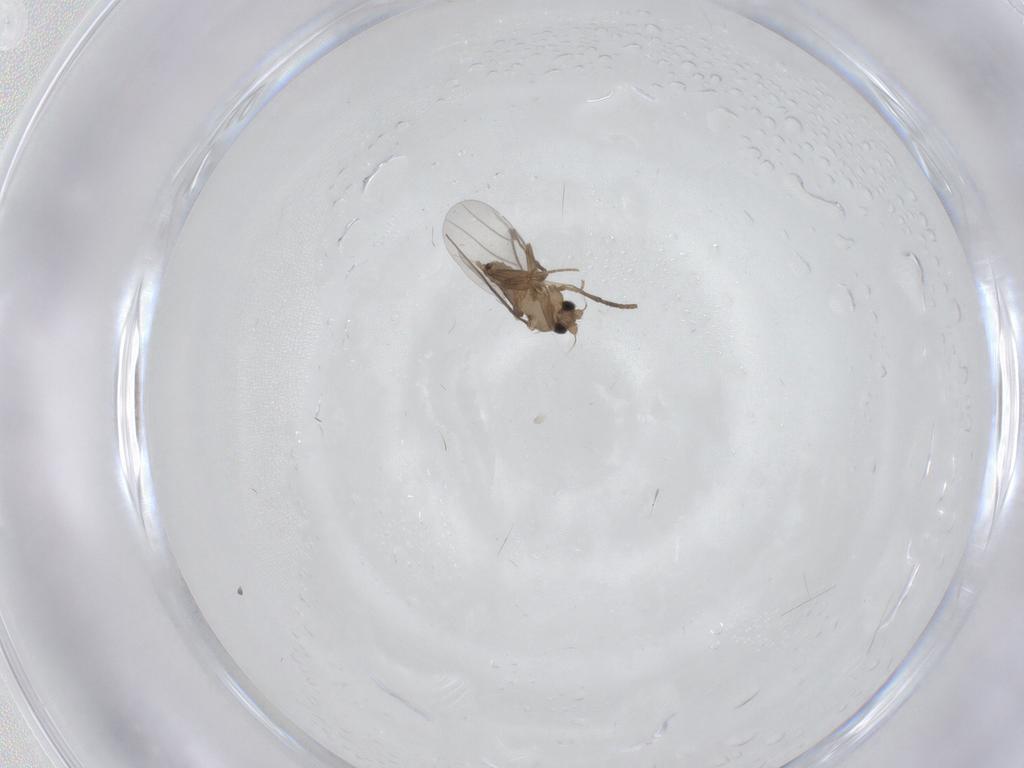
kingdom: Animalia
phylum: Arthropoda
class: Insecta
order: Diptera
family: Psychodidae
